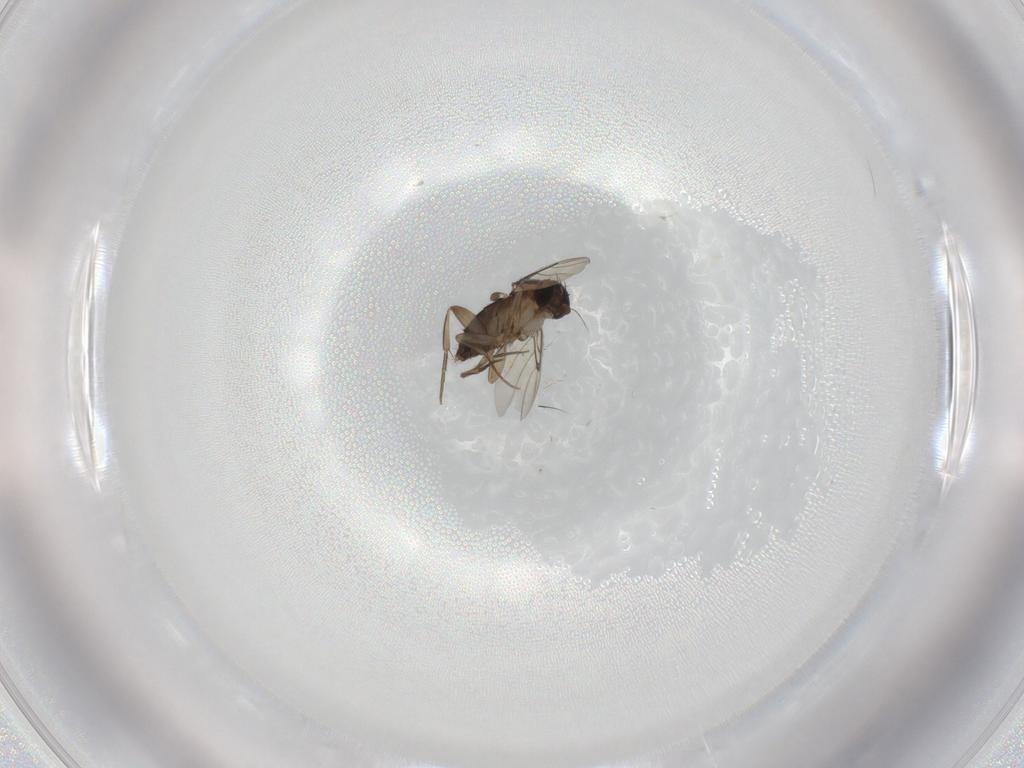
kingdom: Animalia
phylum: Arthropoda
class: Insecta
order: Diptera
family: Phoridae
